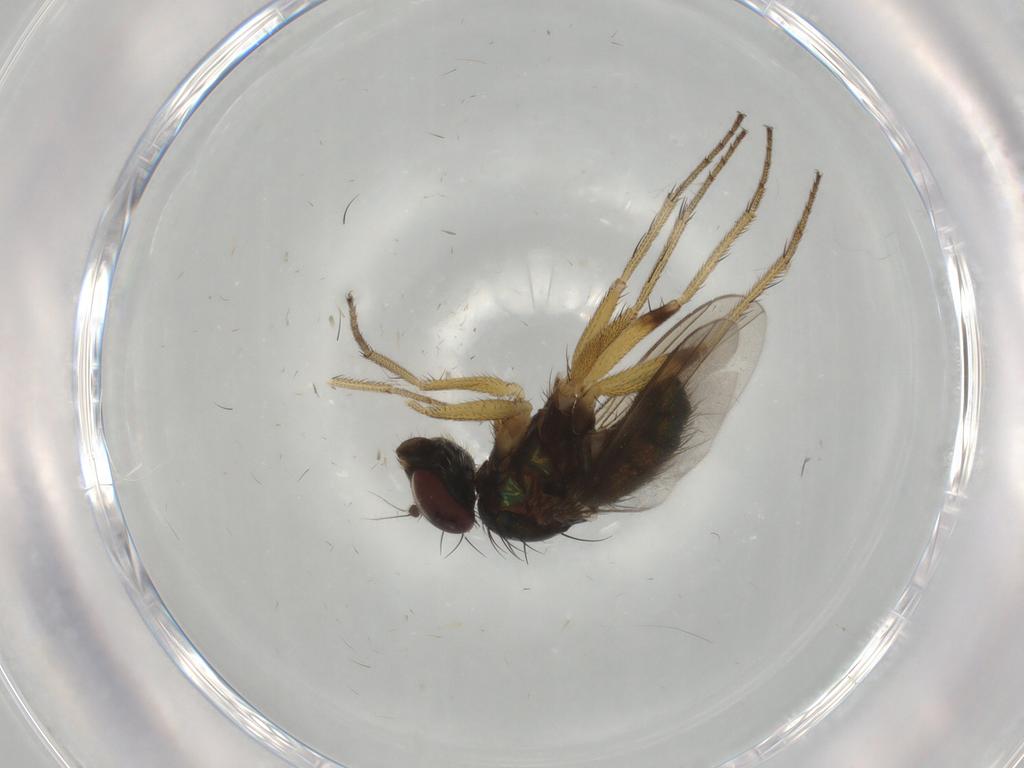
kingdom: Animalia
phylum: Arthropoda
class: Insecta
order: Diptera
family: Dolichopodidae
